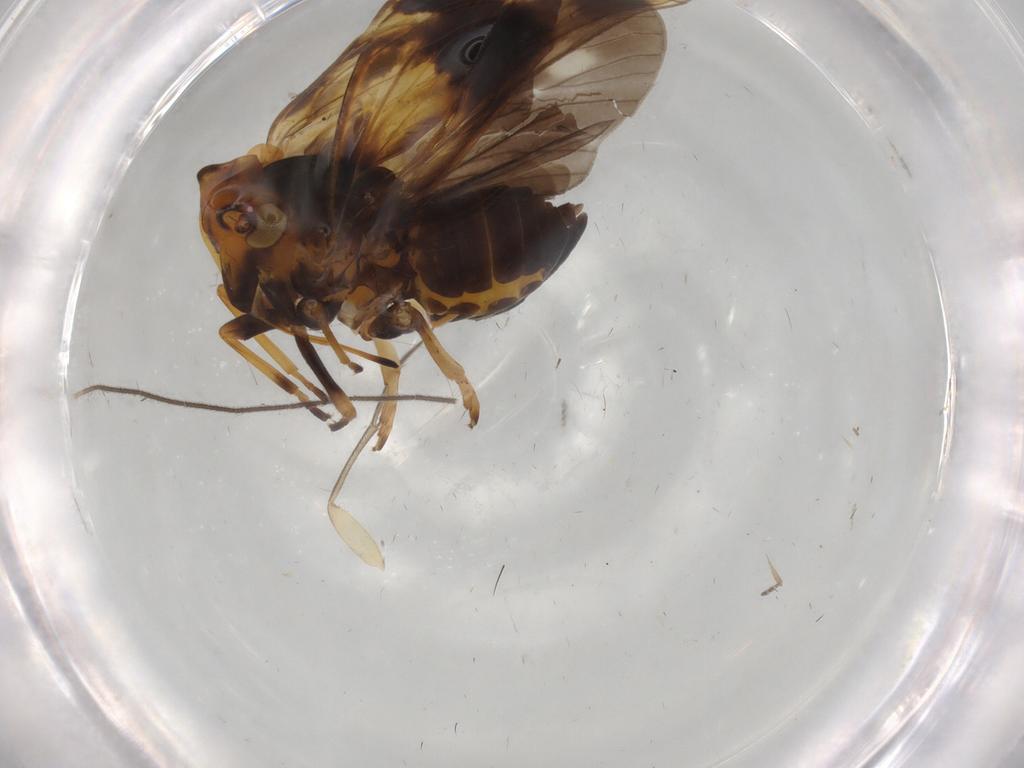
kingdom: Animalia
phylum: Arthropoda
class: Insecta
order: Hemiptera
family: Cixiidae
